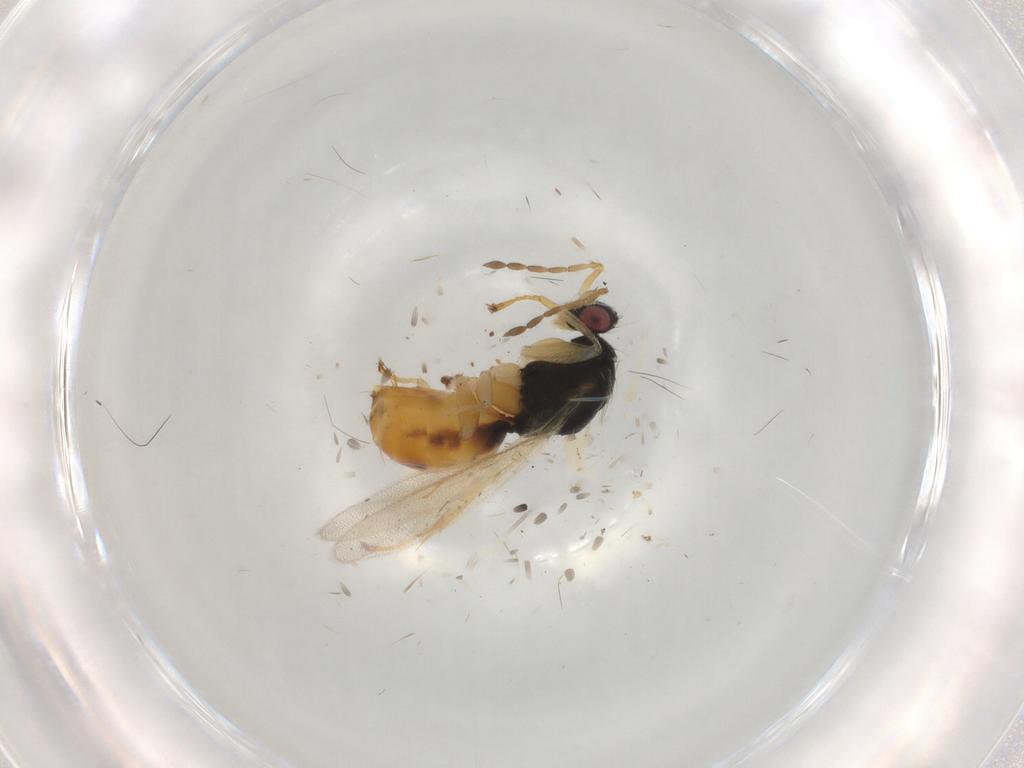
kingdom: Animalia
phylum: Arthropoda
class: Insecta
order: Hymenoptera
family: Eulophidae
